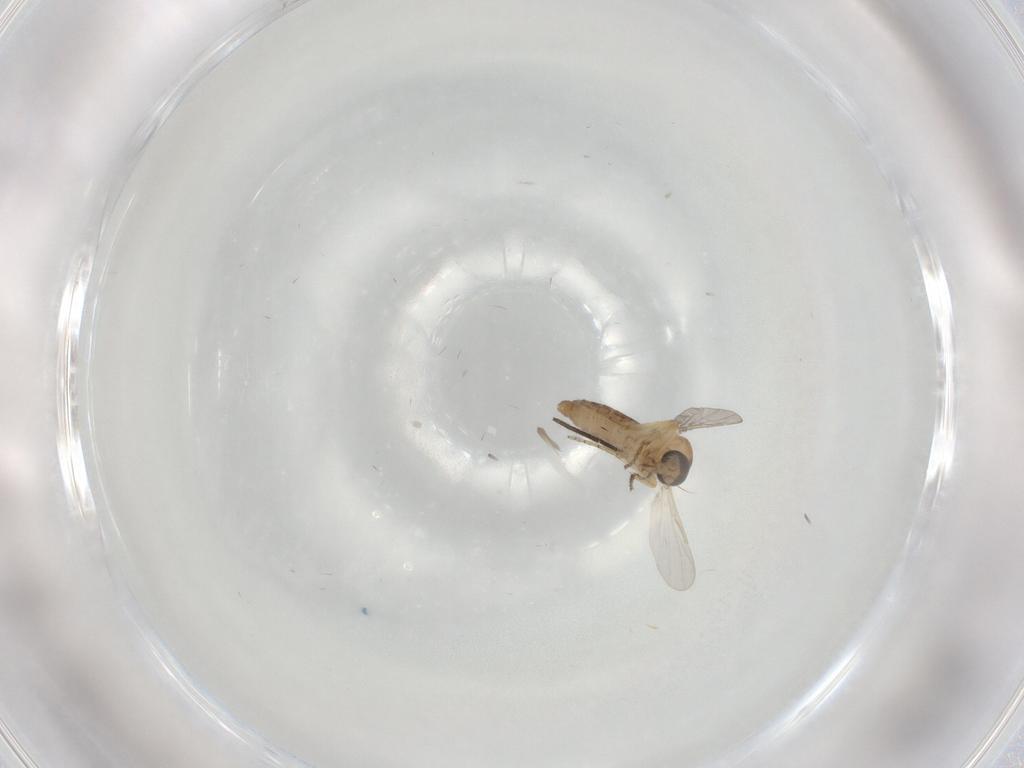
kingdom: Animalia
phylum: Arthropoda
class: Insecta
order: Diptera
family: Ceratopogonidae
